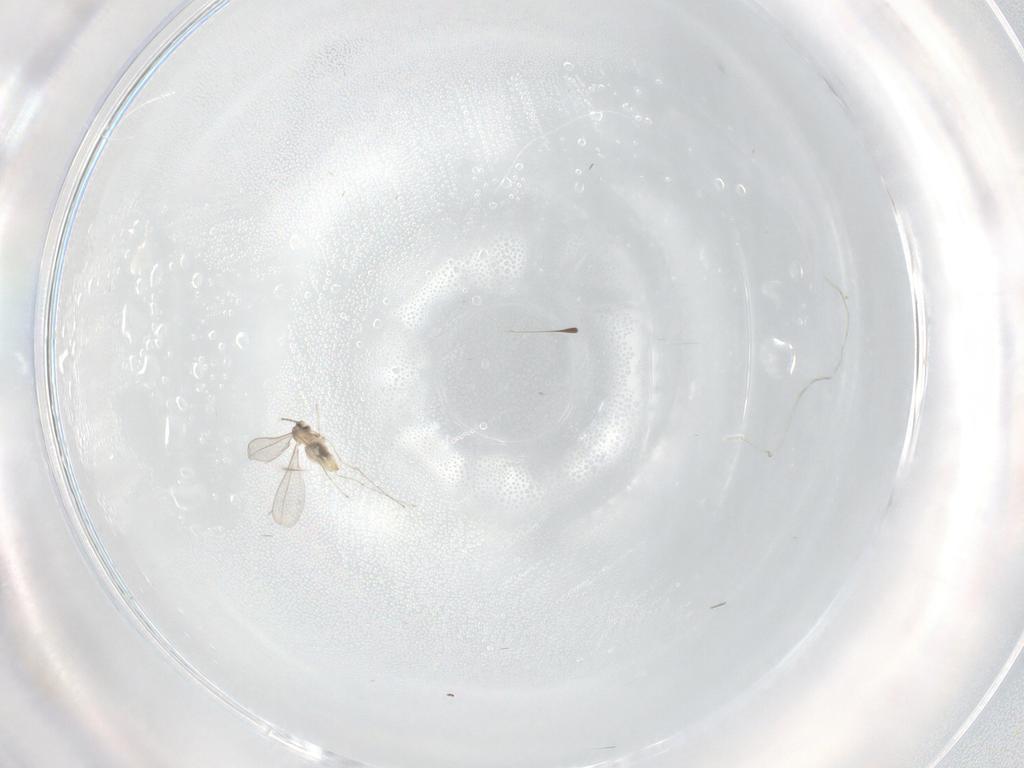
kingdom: Animalia
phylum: Arthropoda
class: Insecta
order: Diptera
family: Cecidomyiidae
